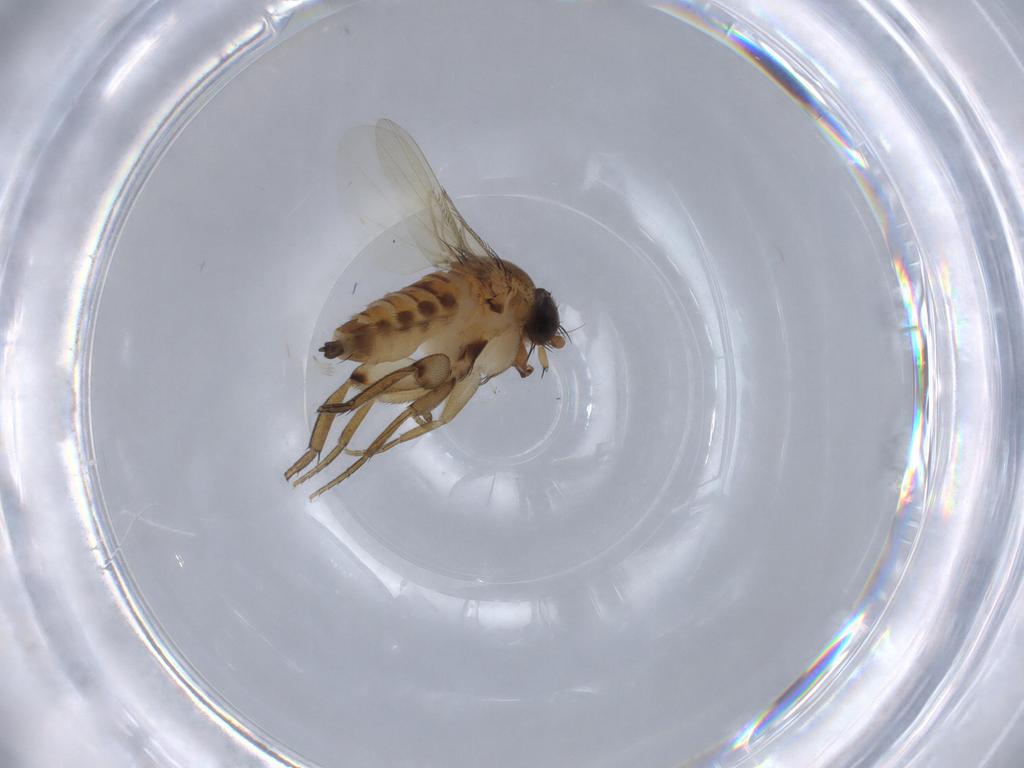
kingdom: Animalia
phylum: Arthropoda
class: Insecta
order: Diptera
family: Phoridae
